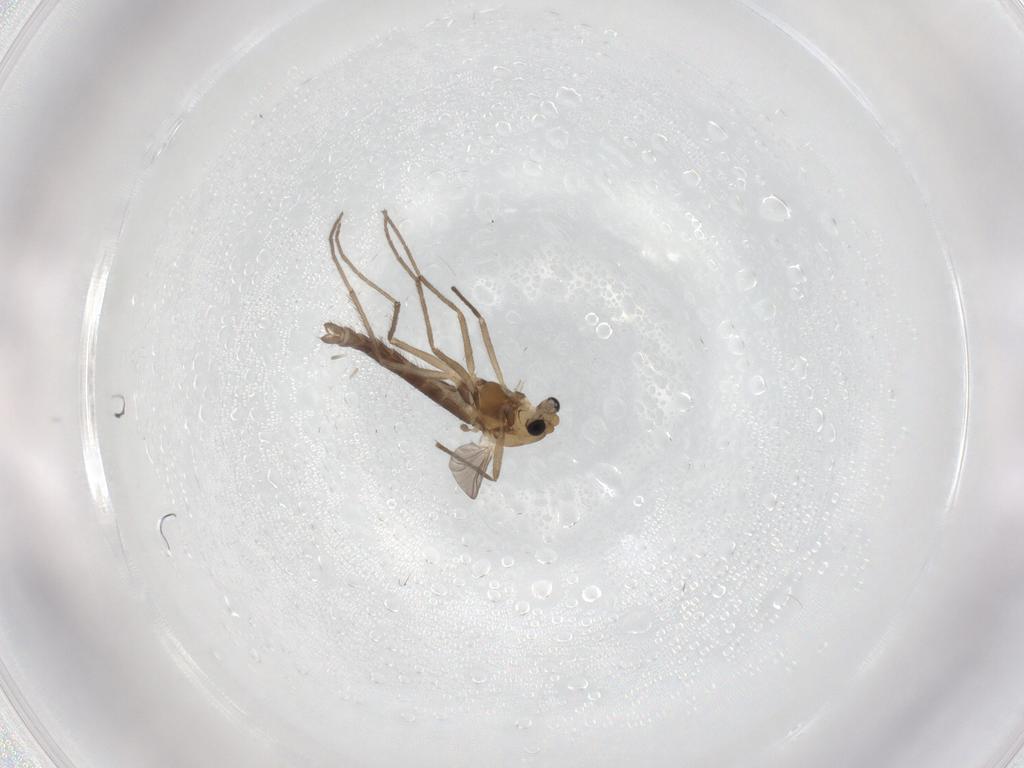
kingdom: Animalia
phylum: Arthropoda
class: Insecta
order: Diptera
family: Chironomidae
